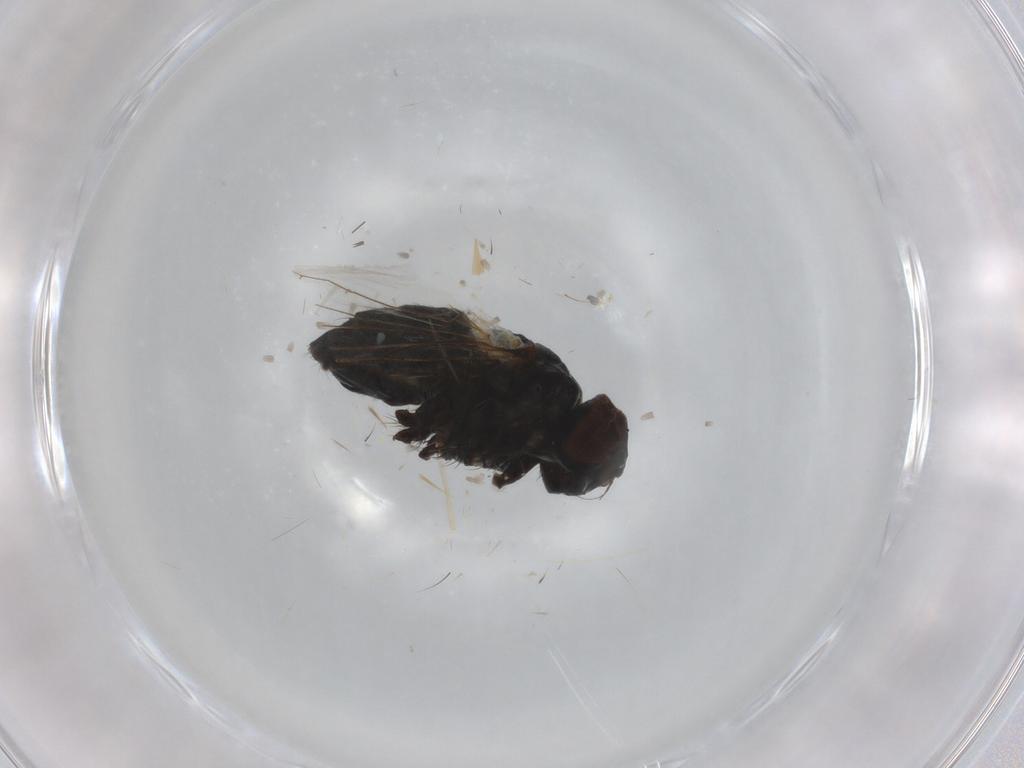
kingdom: Animalia
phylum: Arthropoda
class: Insecta
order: Diptera
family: Muscidae
